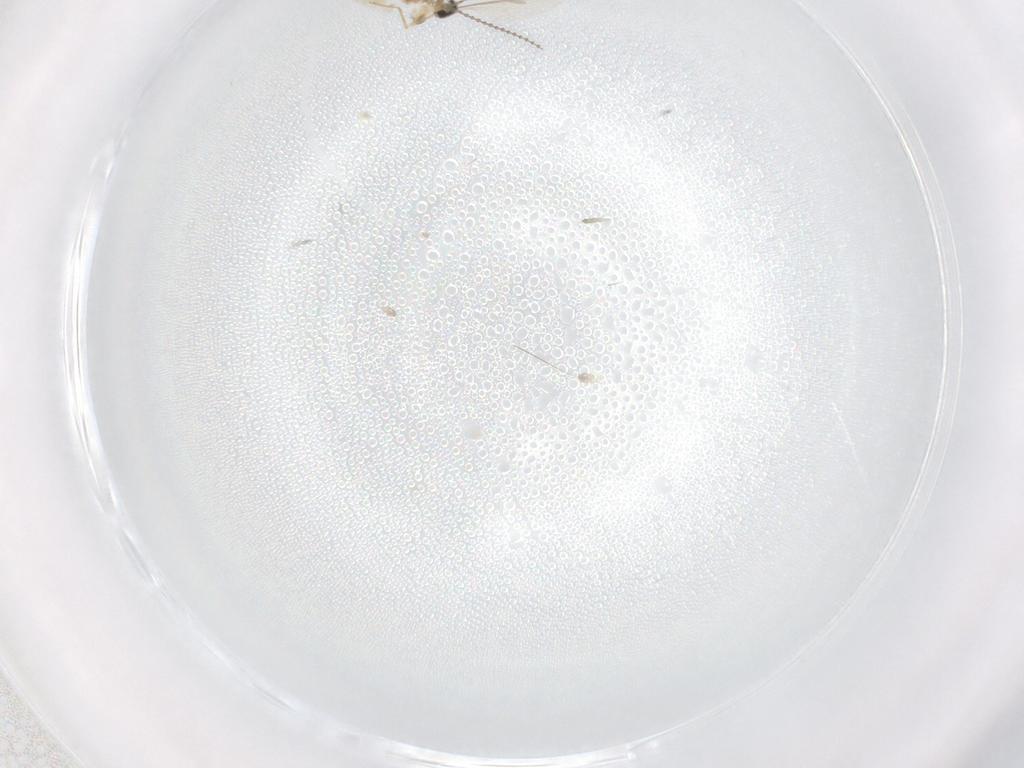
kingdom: Animalia
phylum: Arthropoda
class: Insecta
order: Diptera
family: Cecidomyiidae
